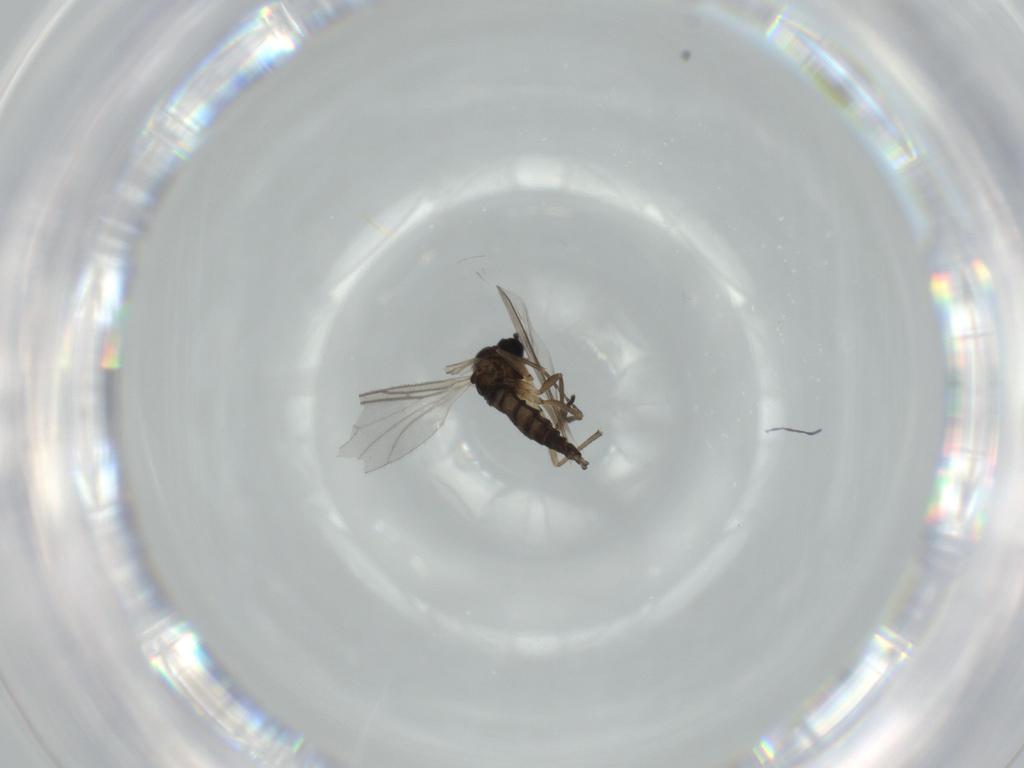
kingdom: Animalia
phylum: Arthropoda
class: Insecta
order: Diptera
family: Chironomidae
